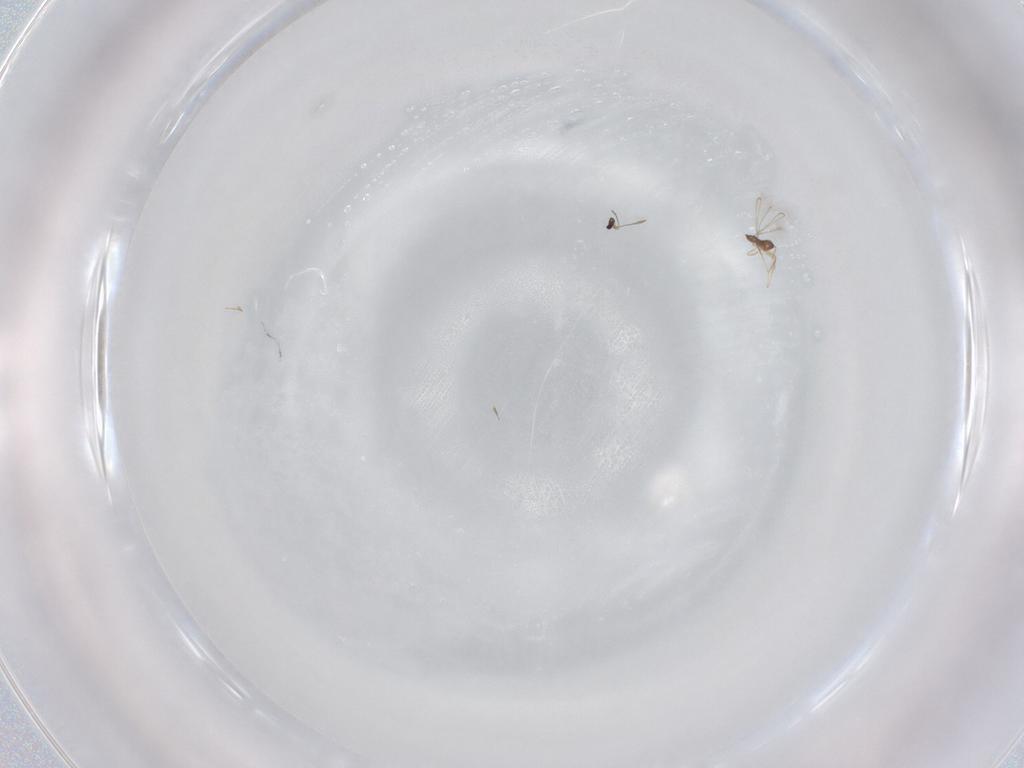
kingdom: Animalia
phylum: Arthropoda
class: Insecta
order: Hymenoptera
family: Mymaridae
